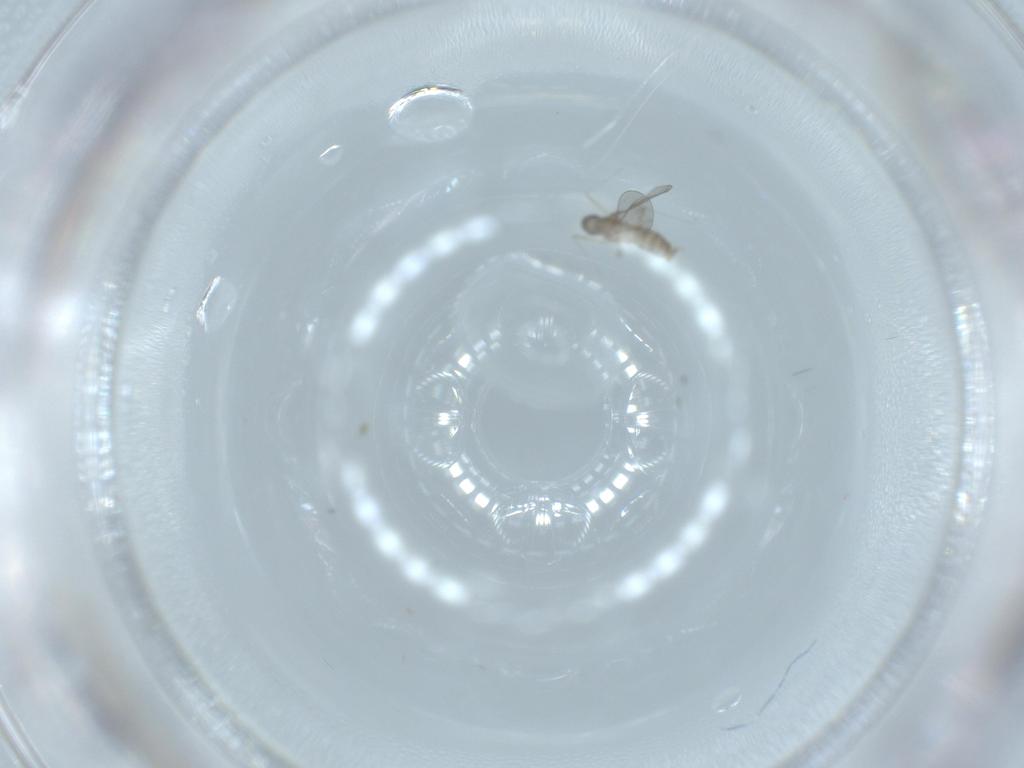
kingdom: Animalia
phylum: Arthropoda
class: Insecta
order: Diptera
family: Cecidomyiidae
